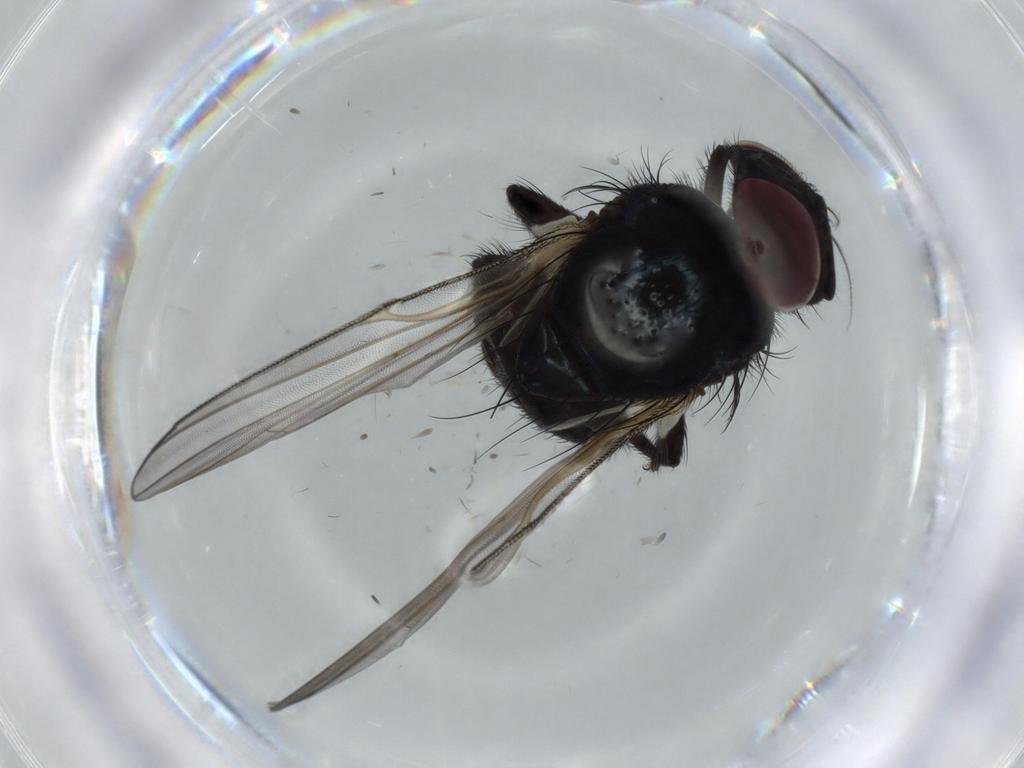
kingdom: Animalia
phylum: Arthropoda
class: Insecta
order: Diptera
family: Lonchaeidae
